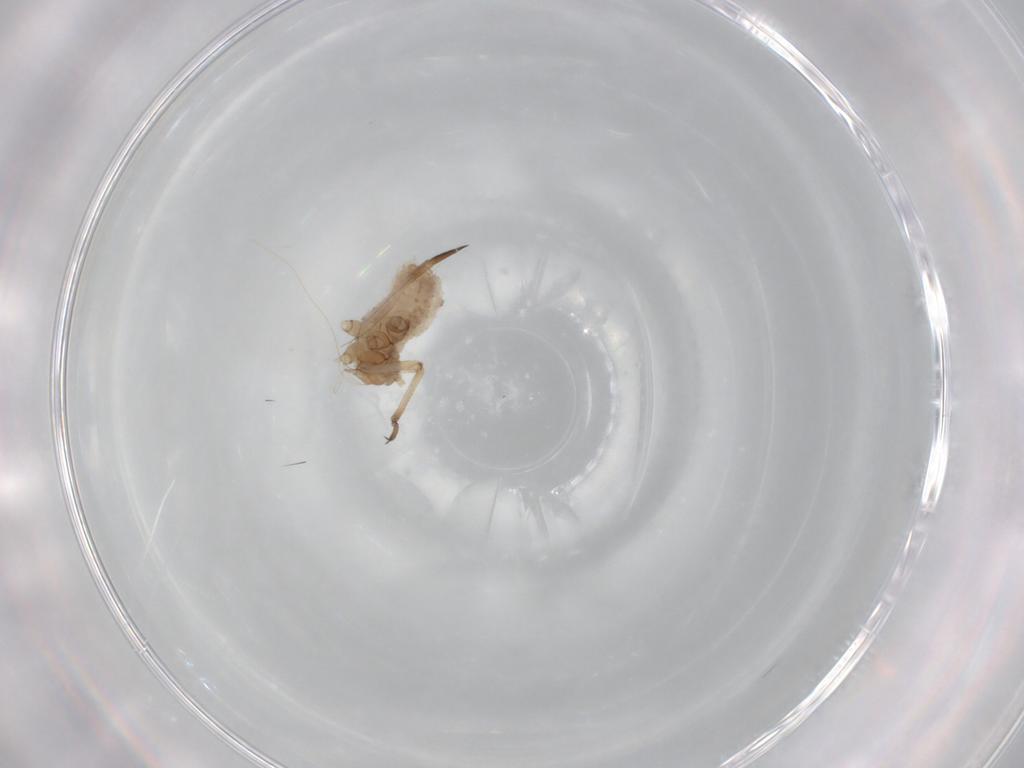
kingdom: Animalia
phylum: Arthropoda
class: Insecta
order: Hemiptera
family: Aphididae
